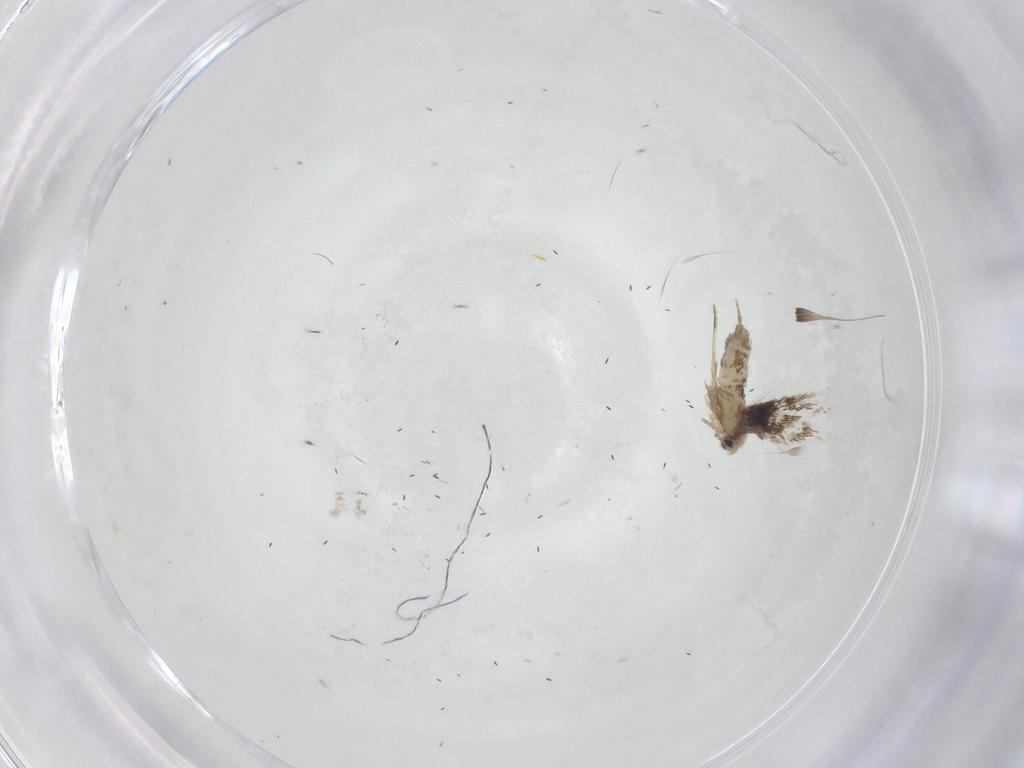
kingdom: Animalia
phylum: Arthropoda
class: Insecta
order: Lepidoptera
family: Nepticulidae
